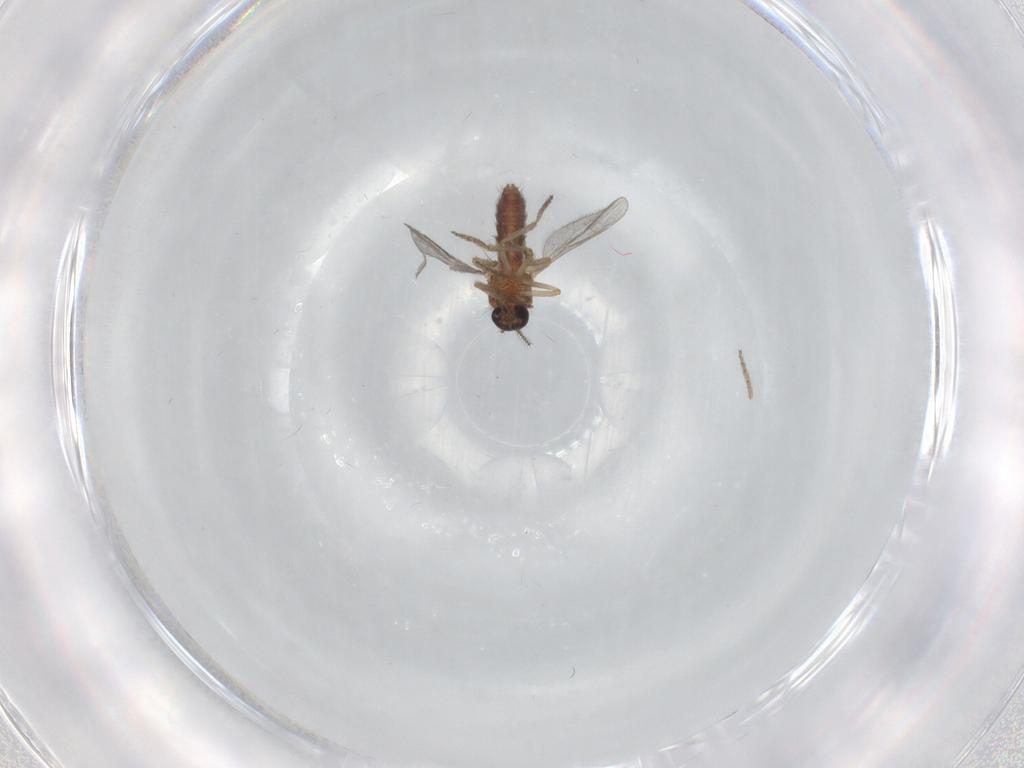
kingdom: Animalia
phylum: Arthropoda
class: Insecta
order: Diptera
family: Ceratopogonidae
